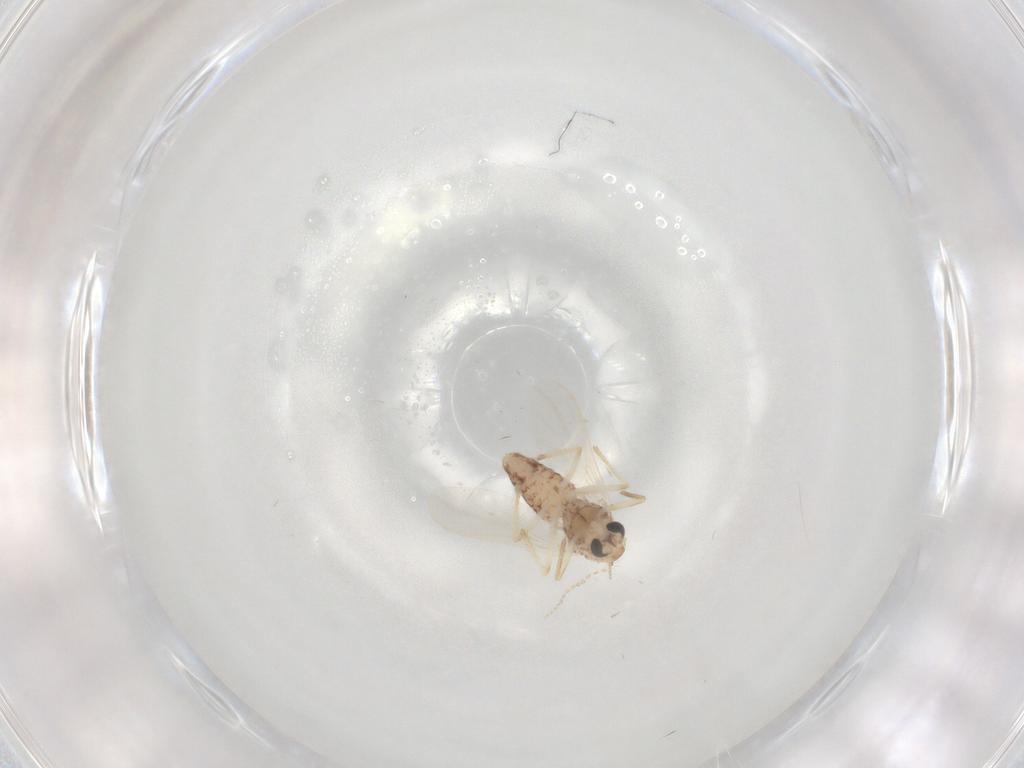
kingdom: Animalia
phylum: Arthropoda
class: Insecta
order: Diptera
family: Chironomidae
